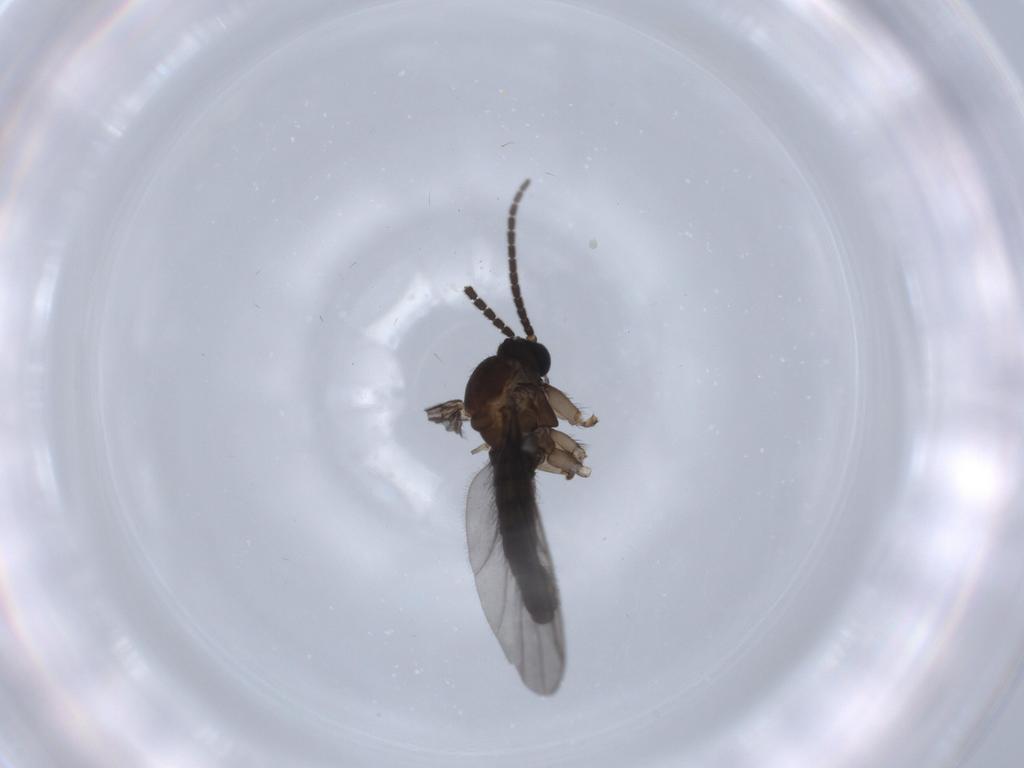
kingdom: Animalia
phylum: Arthropoda
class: Insecta
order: Diptera
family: Sciaridae
